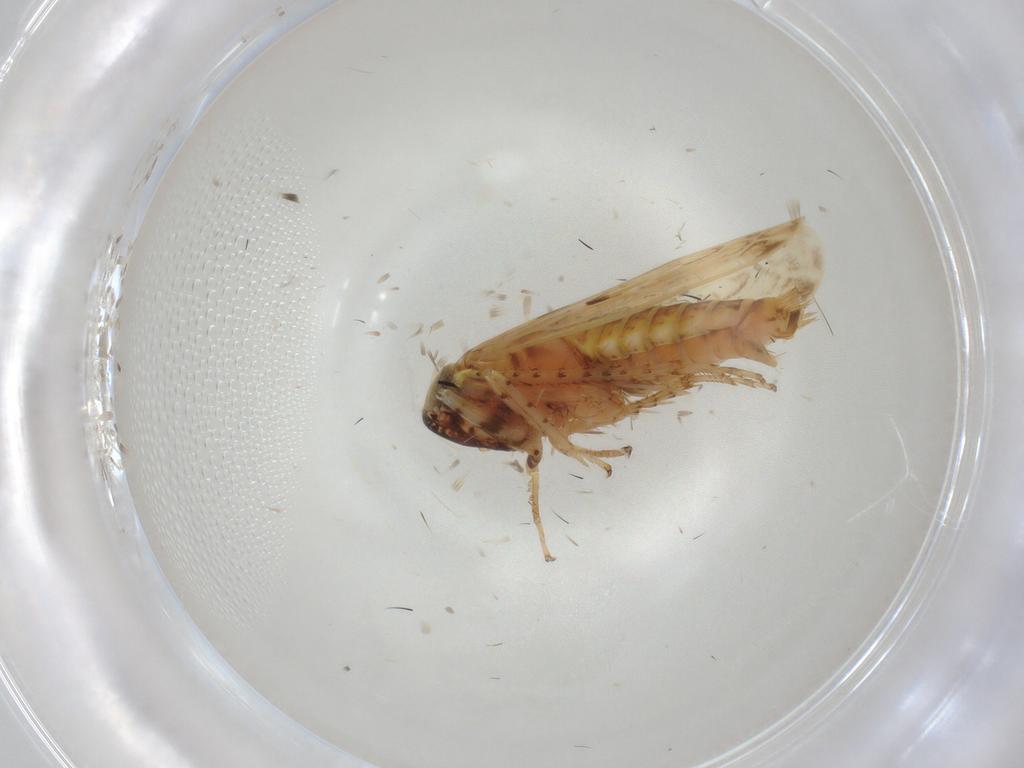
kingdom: Animalia
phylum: Arthropoda
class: Insecta
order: Hemiptera
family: Cicadellidae
